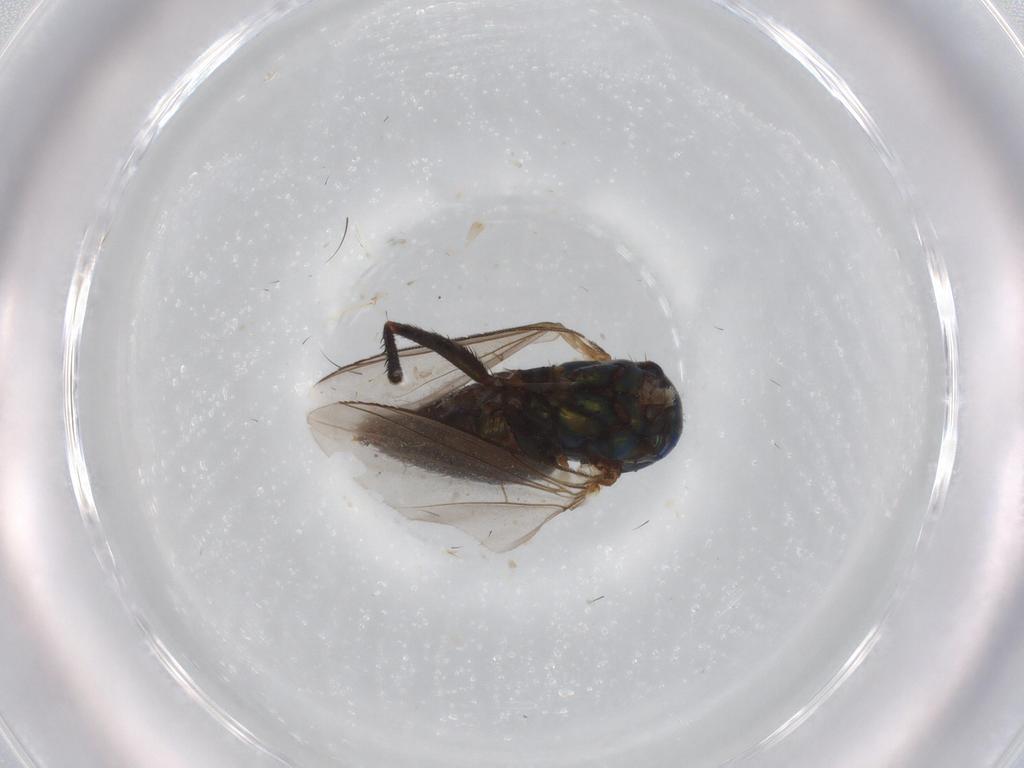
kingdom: Animalia
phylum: Arthropoda
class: Insecta
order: Diptera
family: Dolichopodidae
